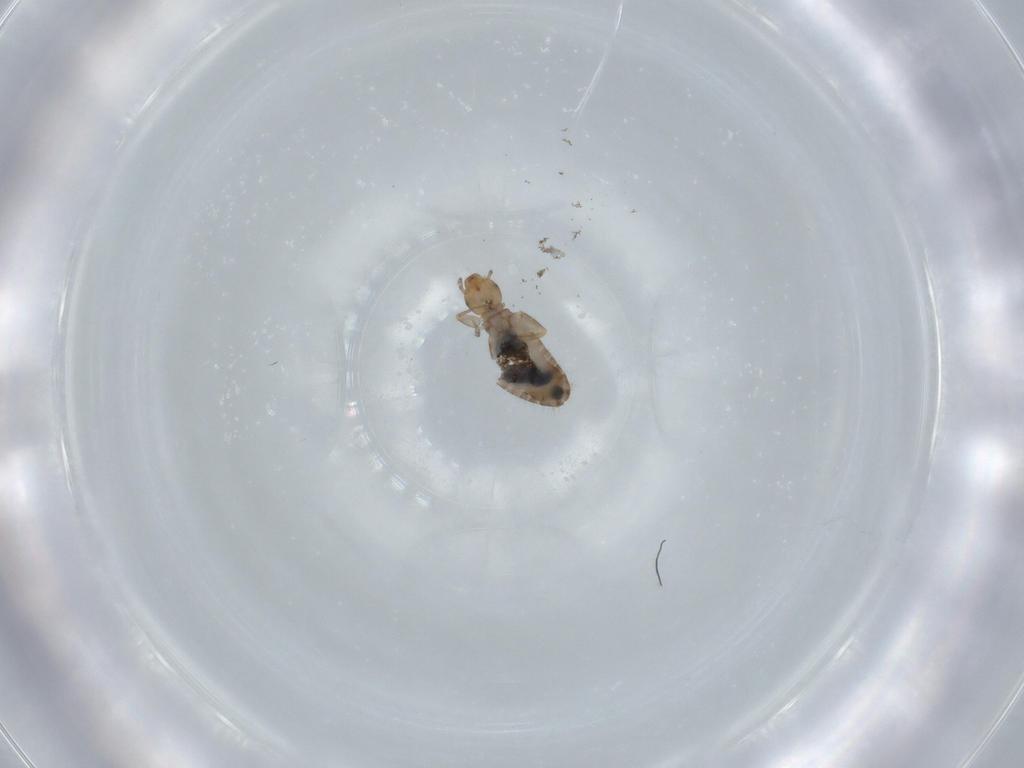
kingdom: Animalia
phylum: Arthropoda
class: Insecta
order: Psocodea
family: Liposcelididae
